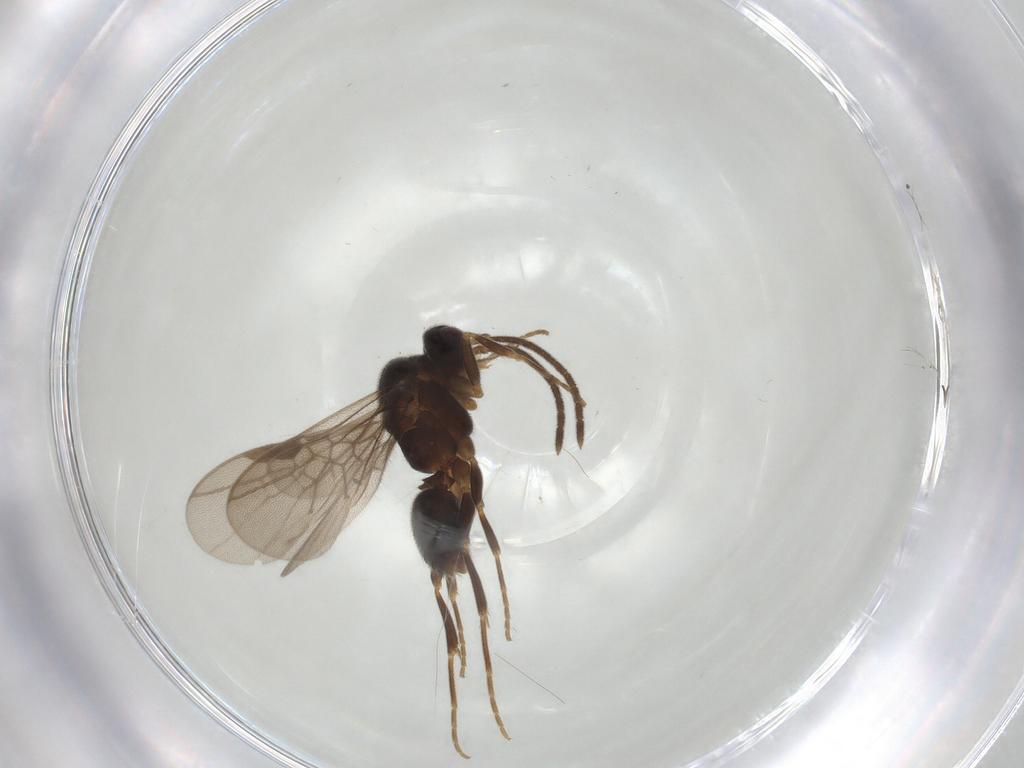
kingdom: Animalia
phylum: Arthropoda
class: Insecta
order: Hymenoptera
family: Formicidae
